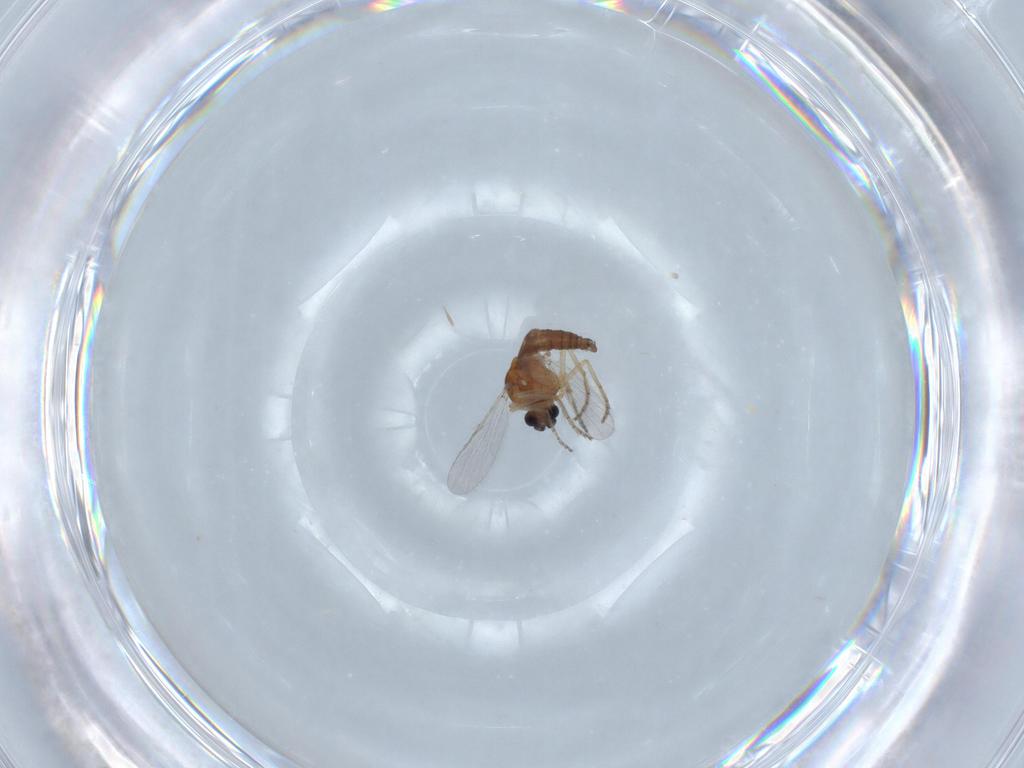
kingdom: Animalia
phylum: Arthropoda
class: Insecta
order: Diptera
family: Ceratopogonidae
